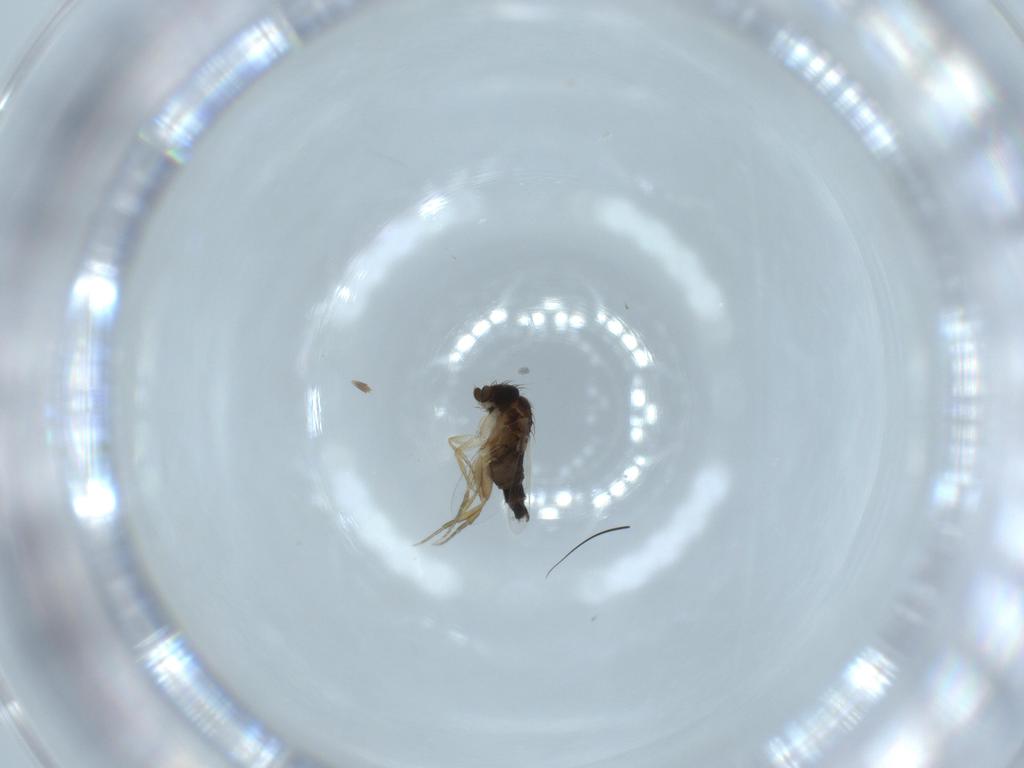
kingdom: Animalia
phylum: Arthropoda
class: Insecta
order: Diptera
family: Phoridae
